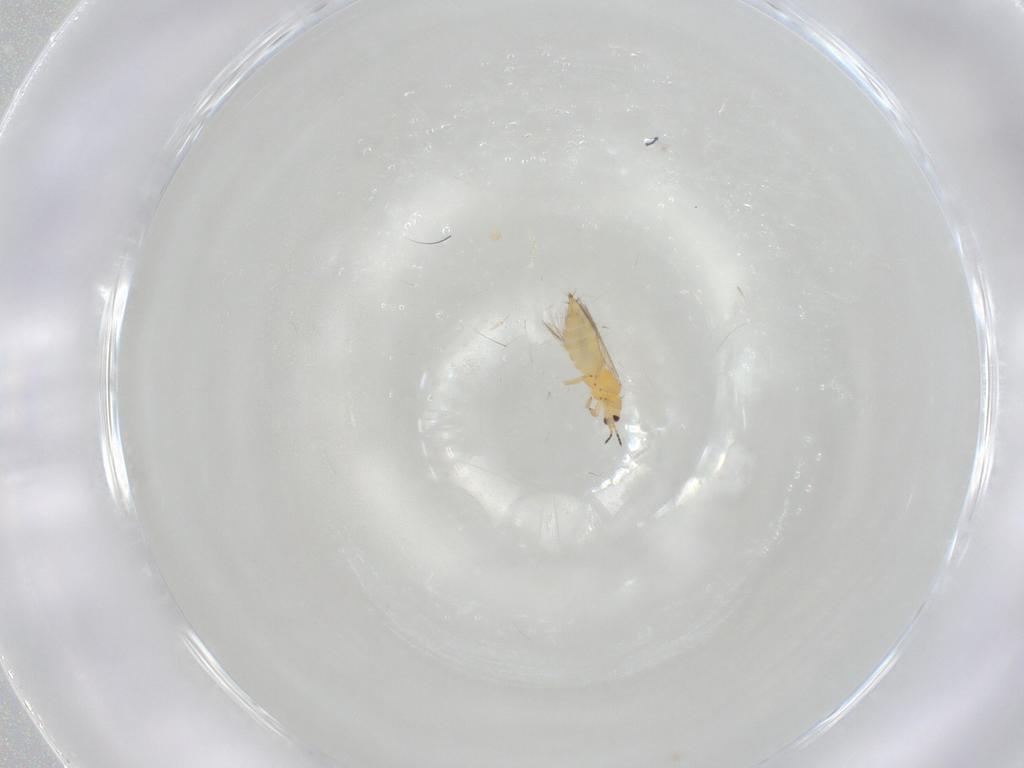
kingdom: Animalia
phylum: Arthropoda
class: Insecta
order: Thysanoptera
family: Thripidae
